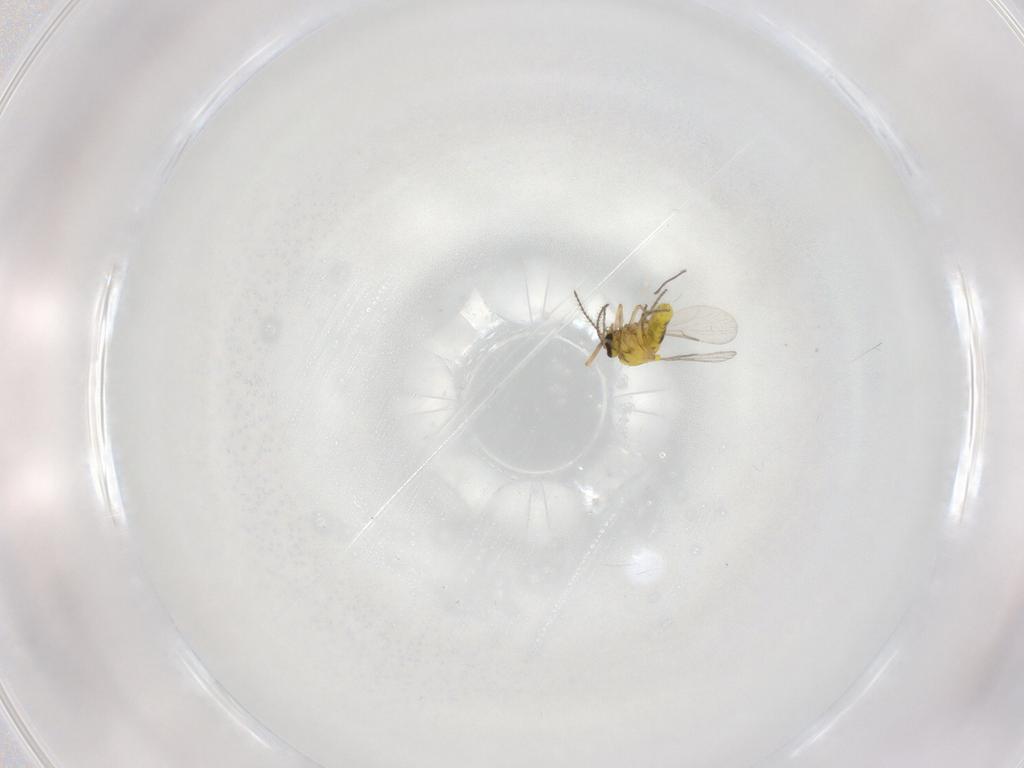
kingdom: Animalia
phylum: Arthropoda
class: Insecta
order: Diptera
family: Ceratopogonidae
